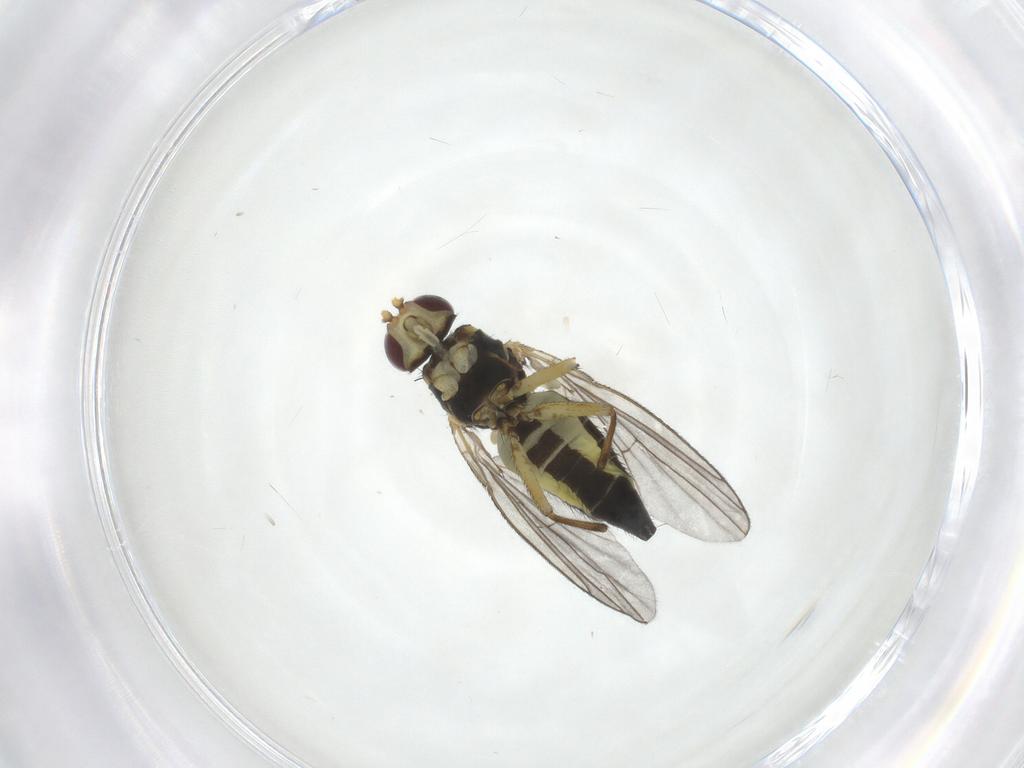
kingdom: Animalia
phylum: Arthropoda
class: Insecta
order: Diptera
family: Agromyzidae
